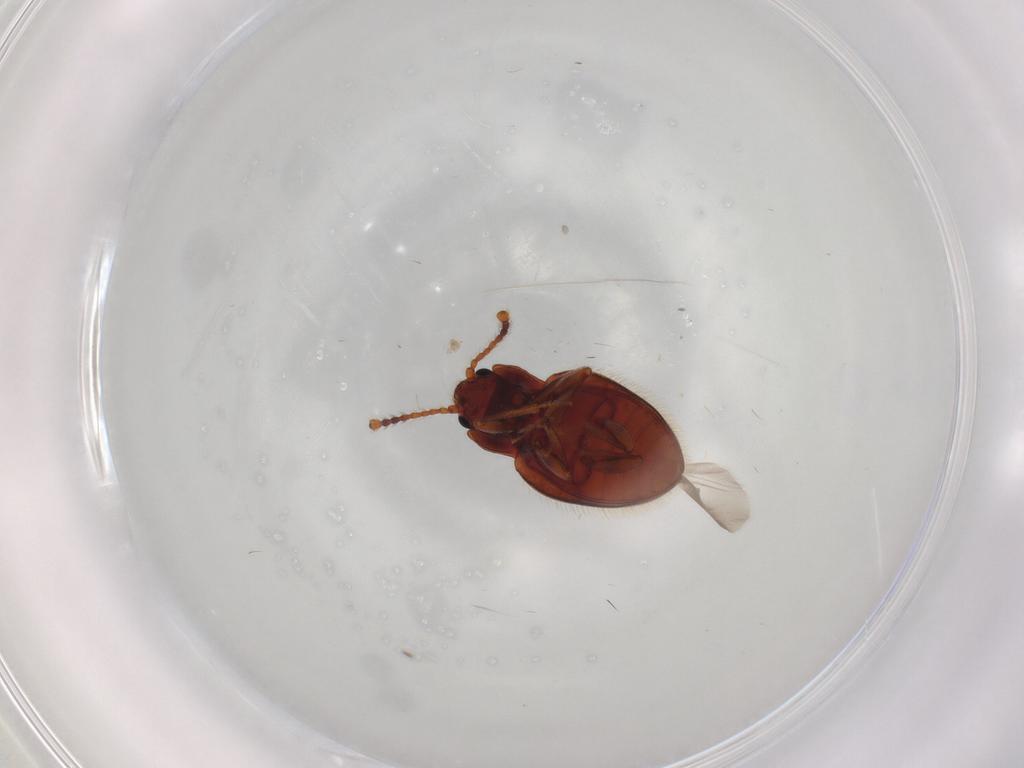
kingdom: Animalia
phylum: Arthropoda
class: Insecta
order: Coleoptera
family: Erotylidae
